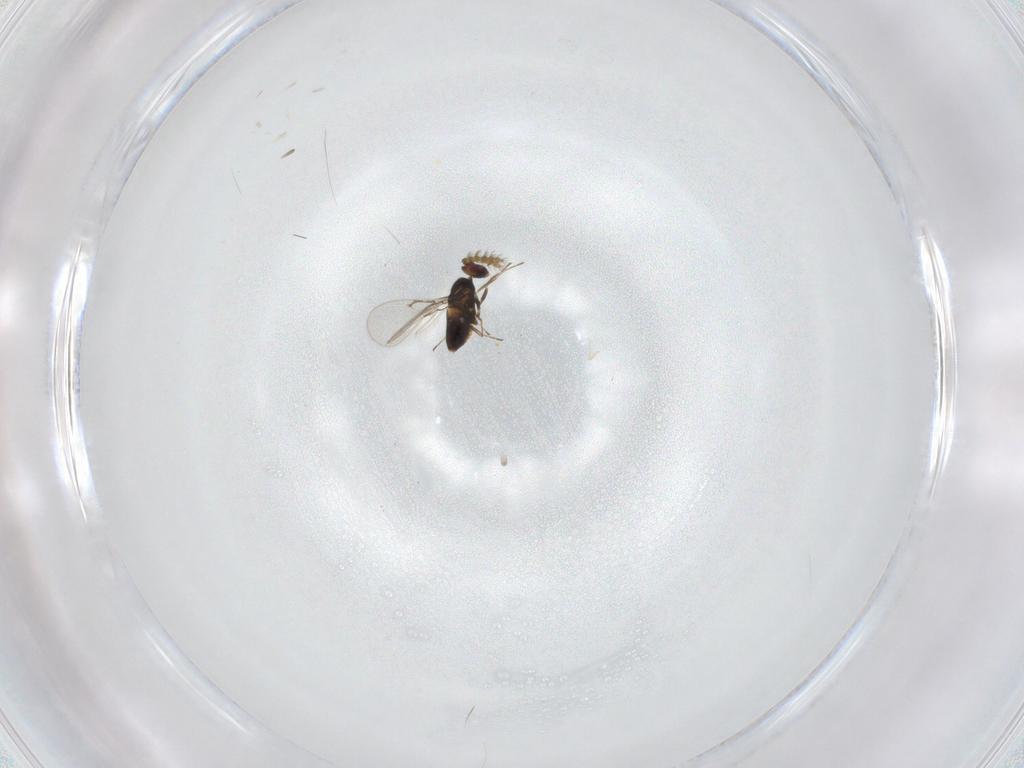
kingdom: Animalia
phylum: Arthropoda
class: Insecta
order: Hymenoptera
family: Trichogrammatidae
